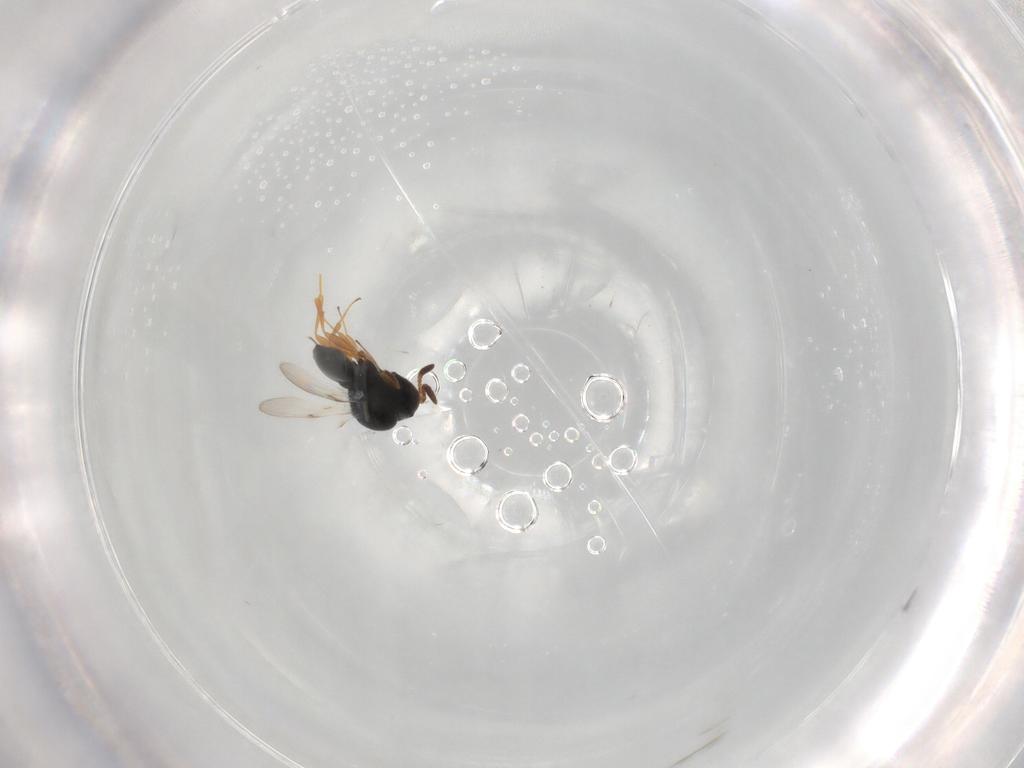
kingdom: Animalia
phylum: Arthropoda
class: Insecta
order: Hymenoptera
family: Scelionidae
